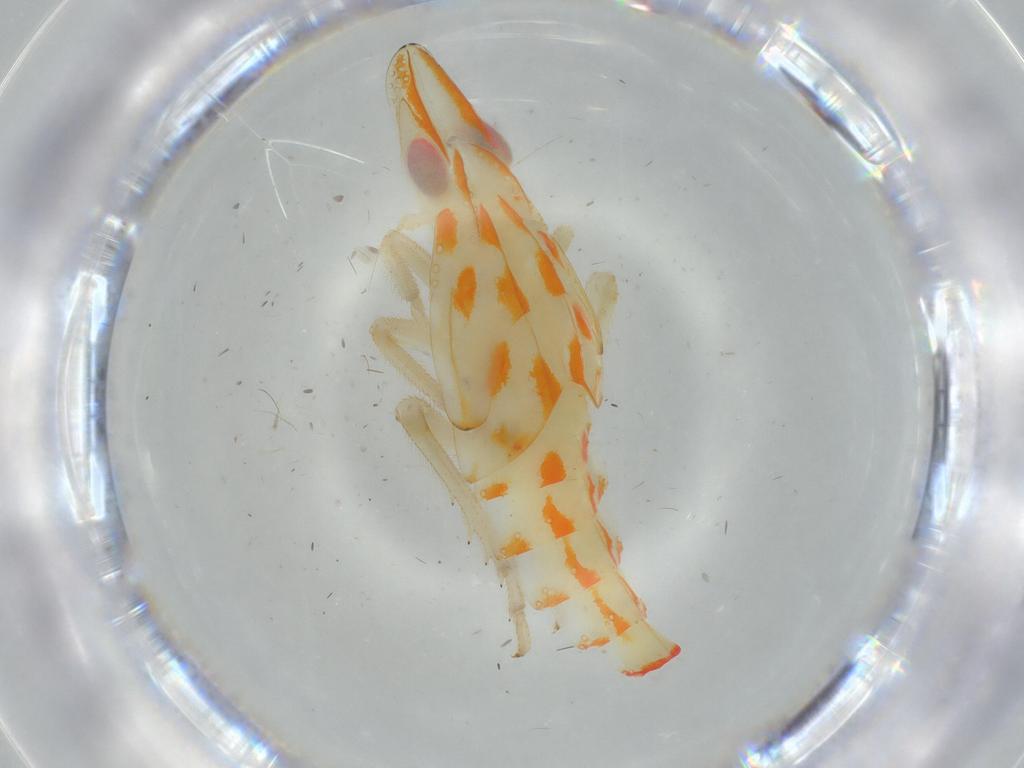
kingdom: Animalia
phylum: Arthropoda
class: Insecta
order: Hemiptera
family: Tropiduchidae
